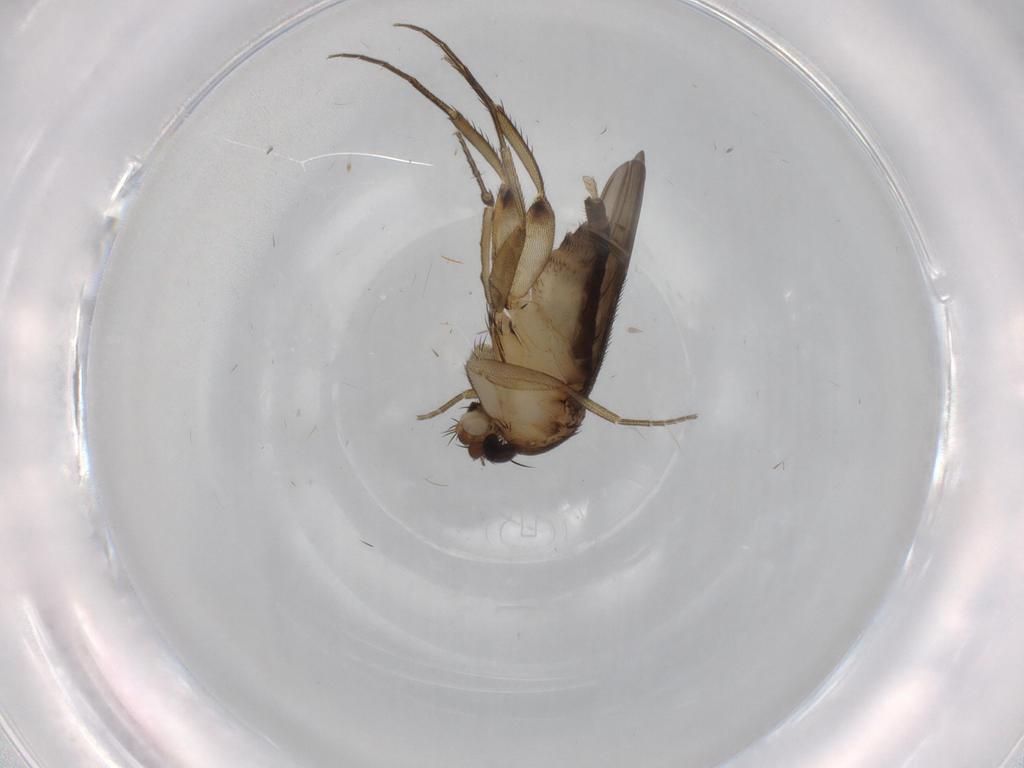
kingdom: Animalia
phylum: Arthropoda
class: Insecta
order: Diptera
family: Phoridae
